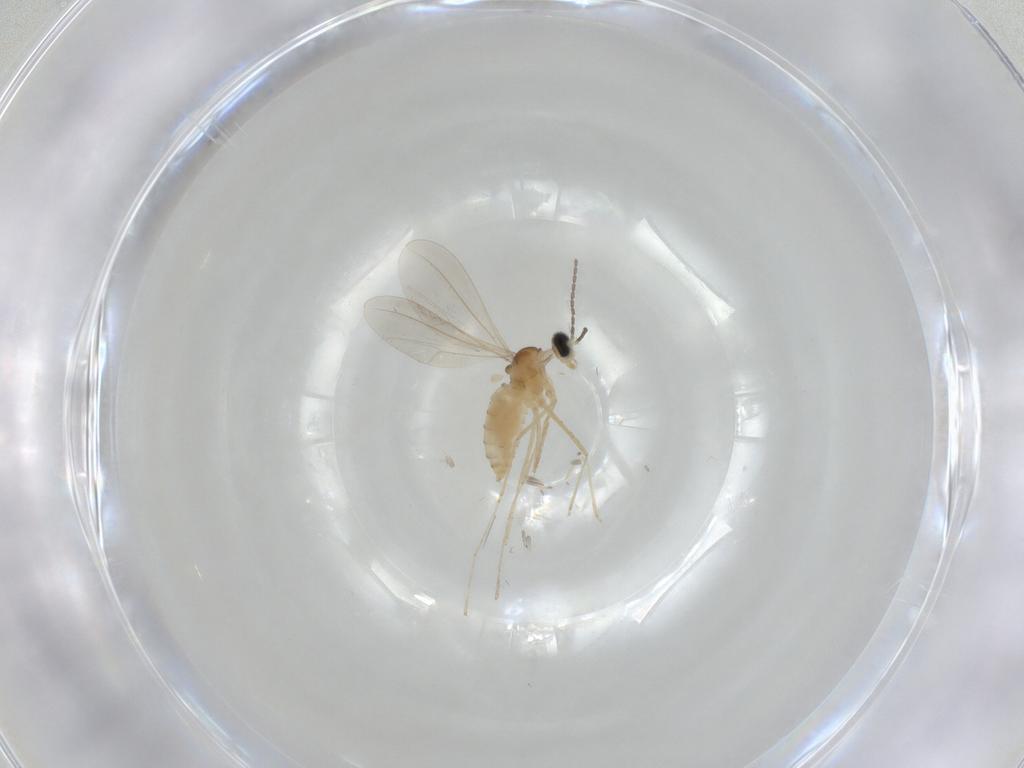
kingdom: Animalia
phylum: Arthropoda
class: Insecta
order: Diptera
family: Cecidomyiidae
